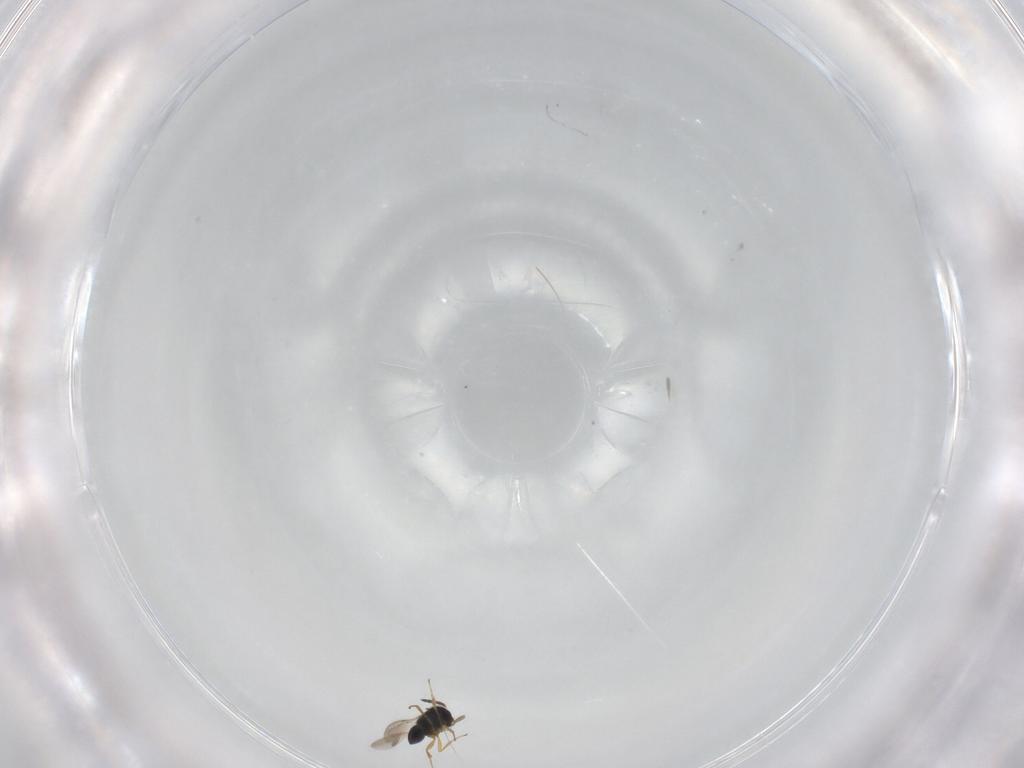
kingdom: Animalia
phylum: Arthropoda
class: Insecta
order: Hymenoptera
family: Scelionidae
